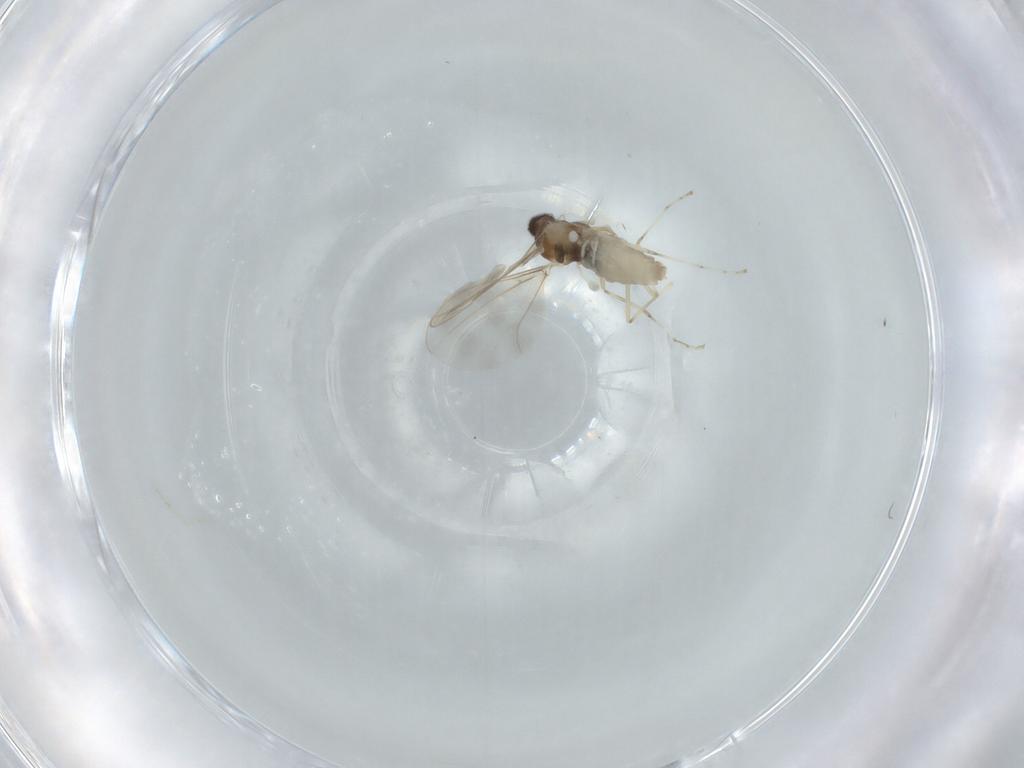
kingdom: Animalia
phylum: Arthropoda
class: Insecta
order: Diptera
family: Cecidomyiidae
